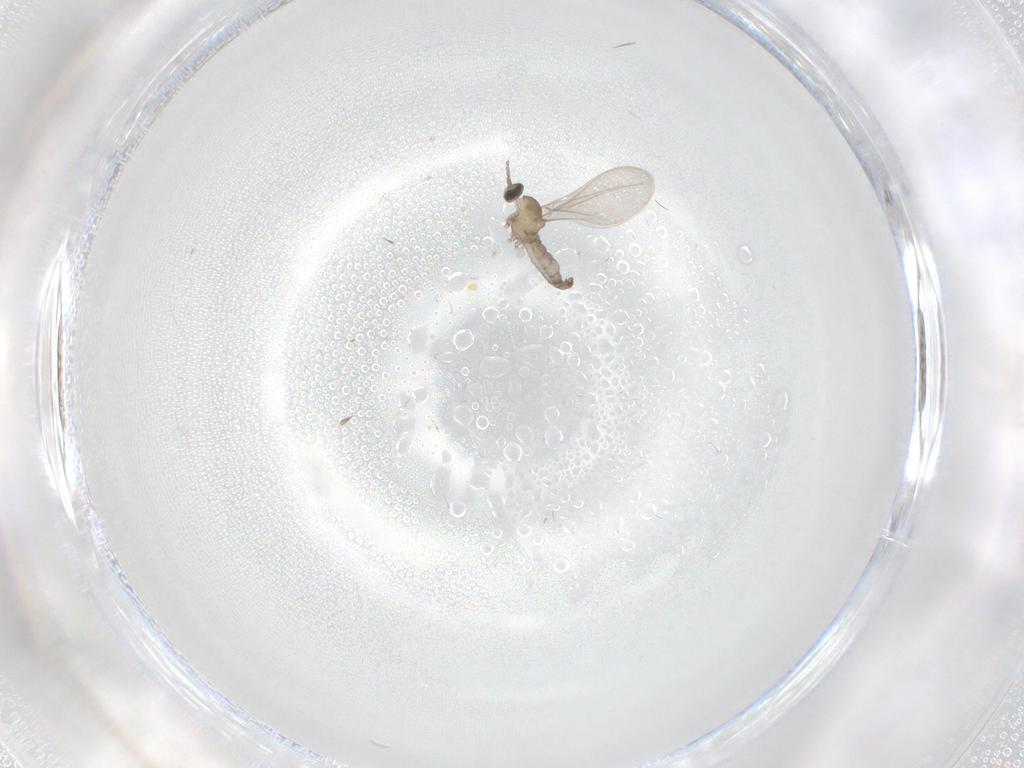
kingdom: Animalia
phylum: Arthropoda
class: Insecta
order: Diptera
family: Cecidomyiidae
